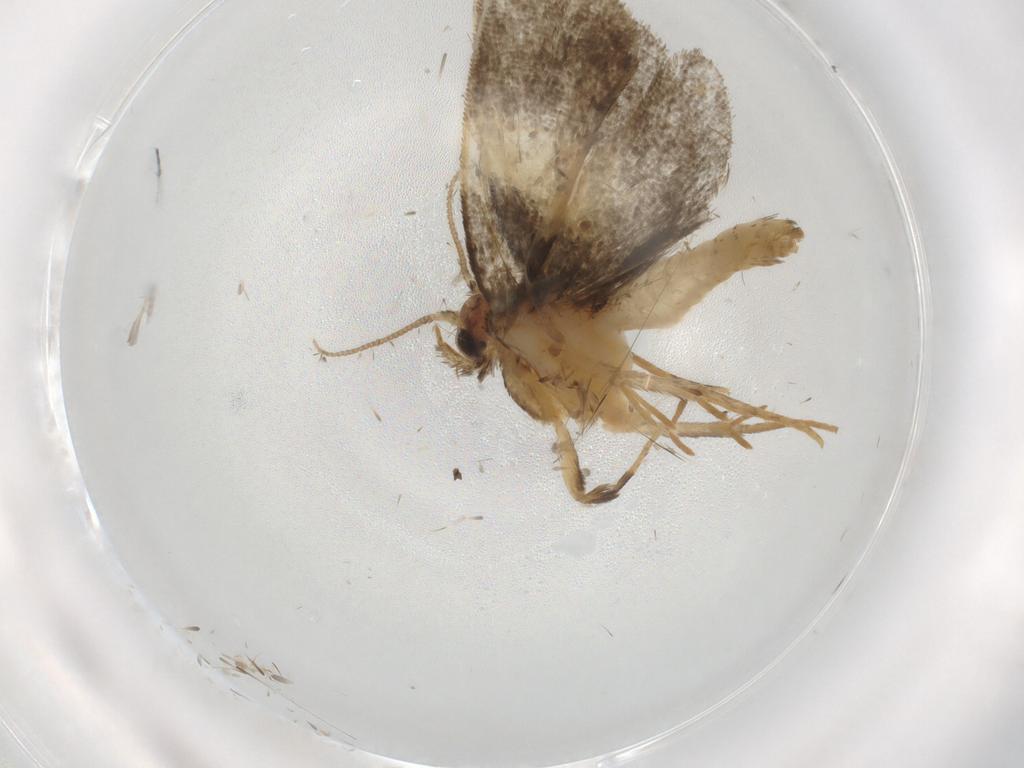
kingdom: Animalia
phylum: Arthropoda
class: Insecta
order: Lepidoptera
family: Psychidae
